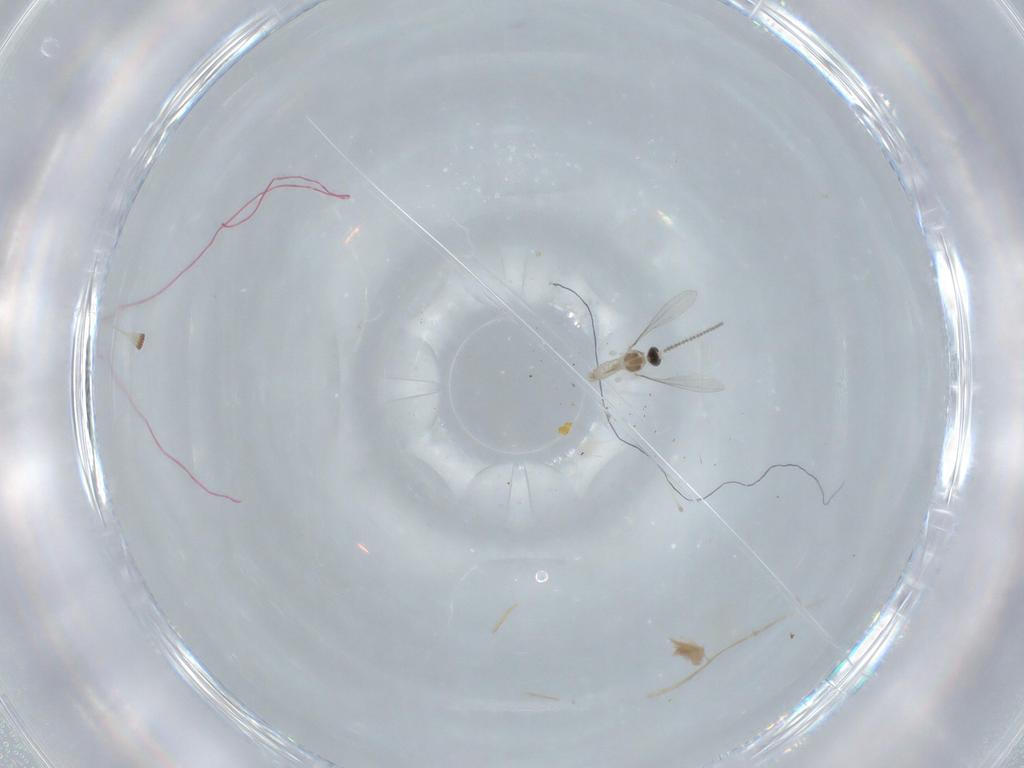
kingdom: Animalia
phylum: Arthropoda
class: Insecta
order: Diptera
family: Cecidomyiidae
